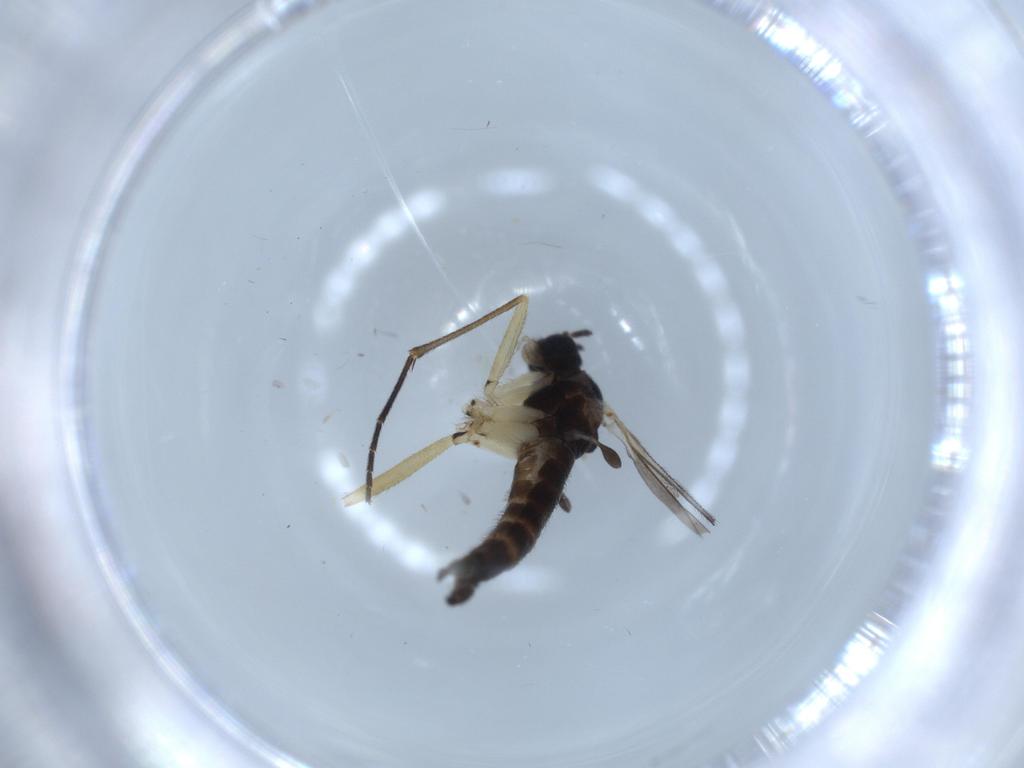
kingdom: Animalia
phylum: Arthropoda
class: Insecta
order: Diptera
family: Sciaridae
